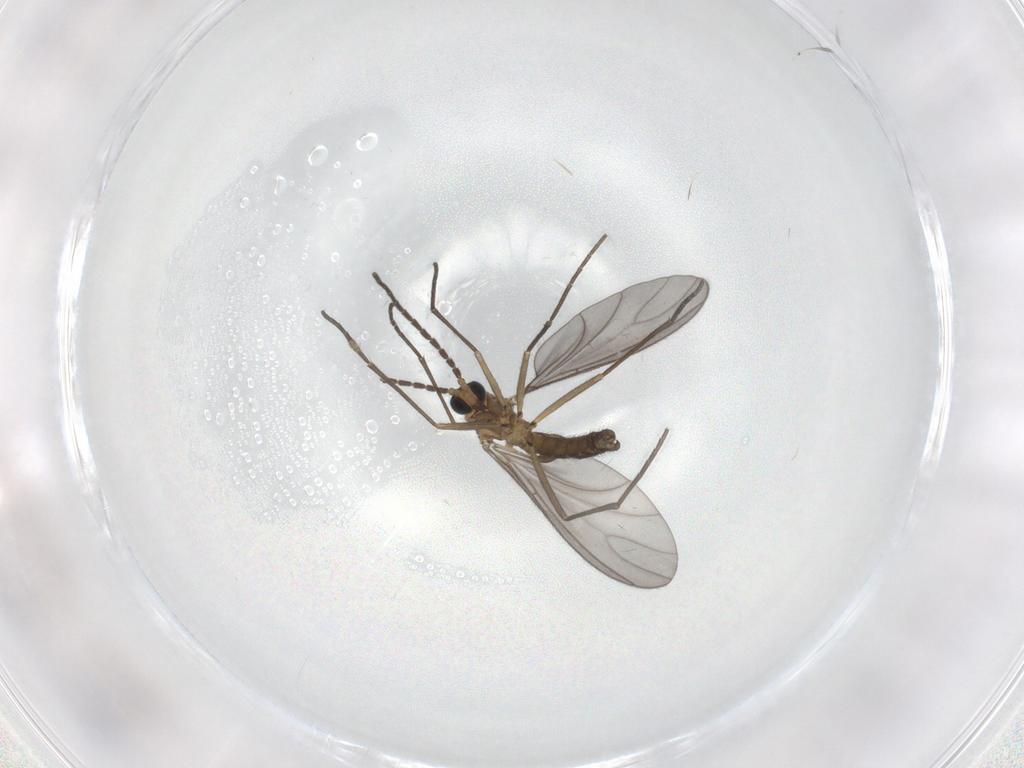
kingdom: Animalia
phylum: Arthropoda
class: Insecta
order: Diptera
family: Sciaridae
